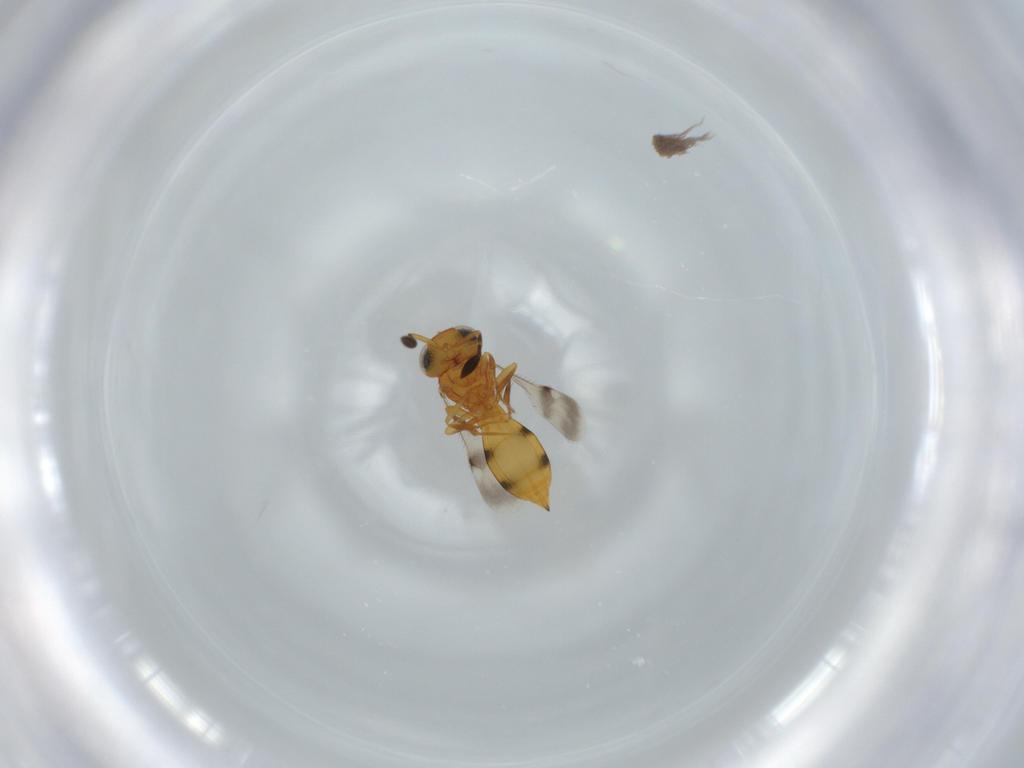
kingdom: Animalia
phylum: Arthropoda
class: Insecta
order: Hymenoptera
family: Scelionidae
